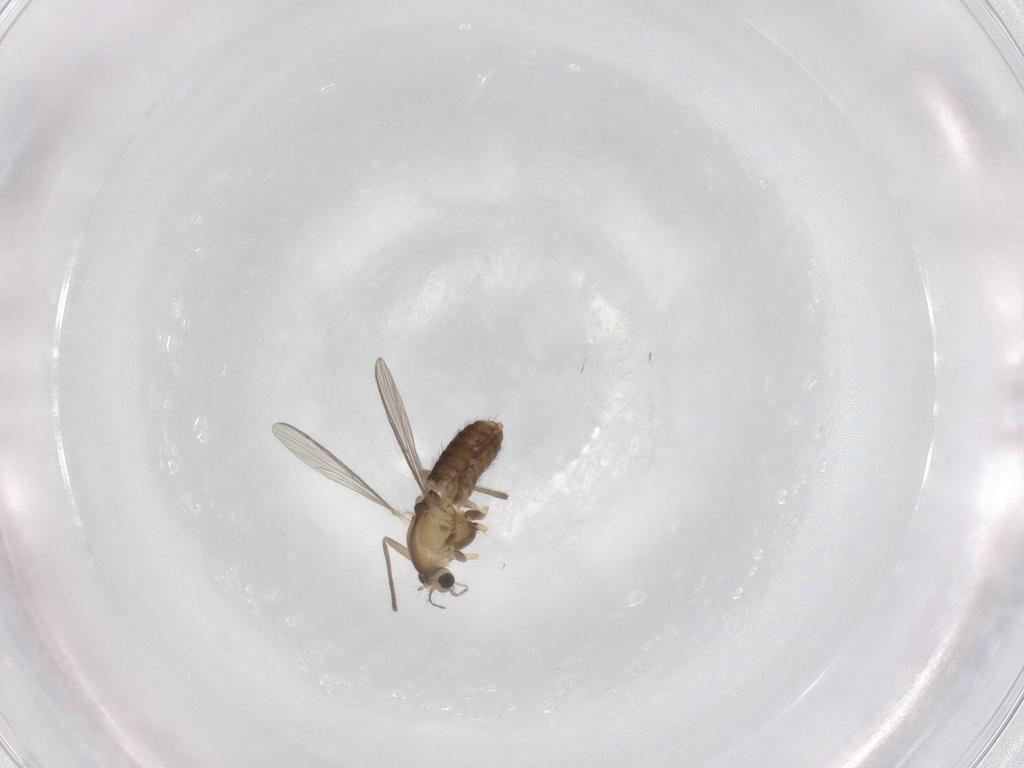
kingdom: Animalia
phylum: Arthropoda
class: Insecta
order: Diptera
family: Chironomidae
